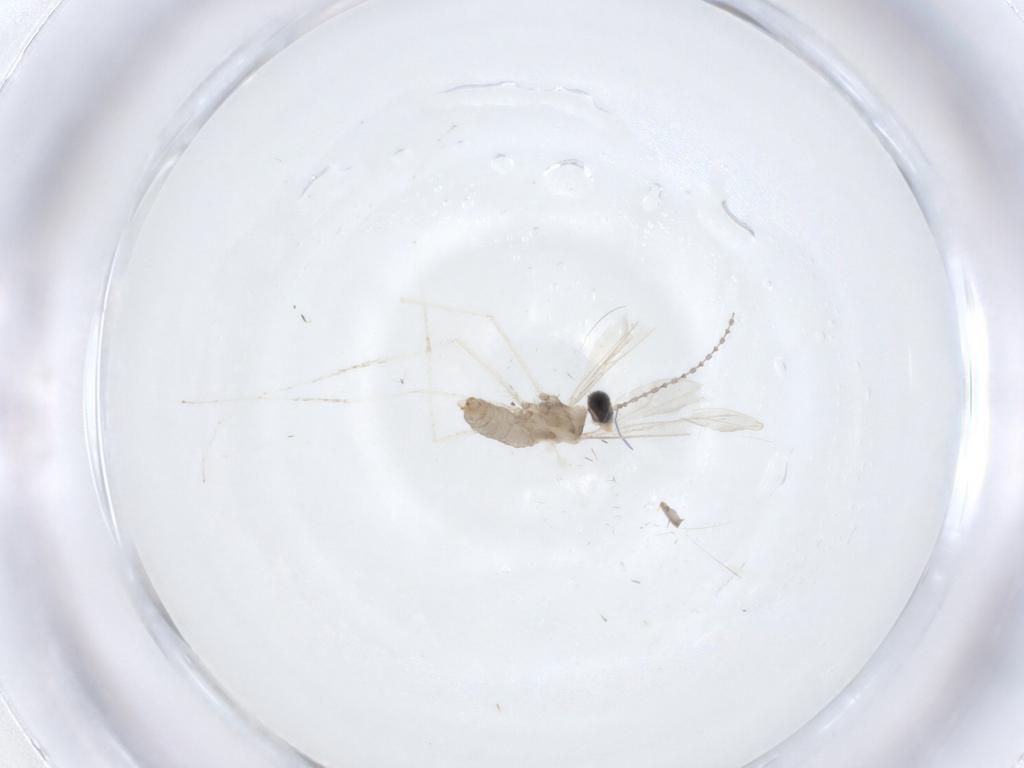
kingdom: Animalia
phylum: Arthropoda
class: Insecta
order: Diptera
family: Cecidomyiidae
